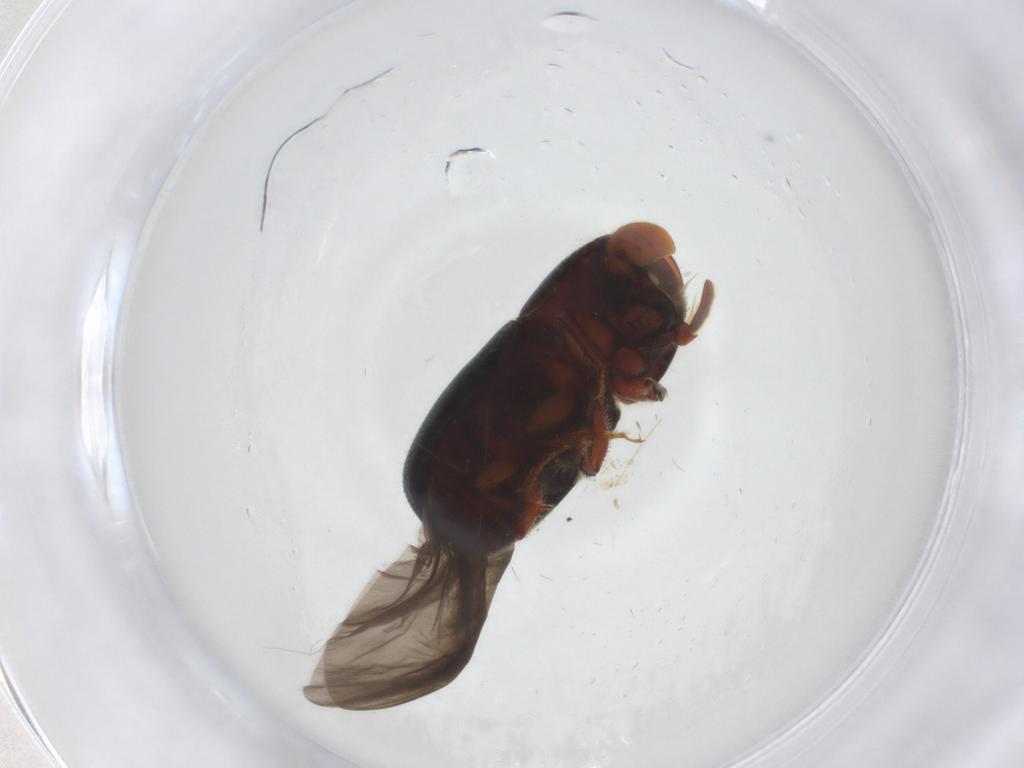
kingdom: Animalia
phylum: Arthropoda
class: Insecta
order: Coleoptera
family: Curculionidae
